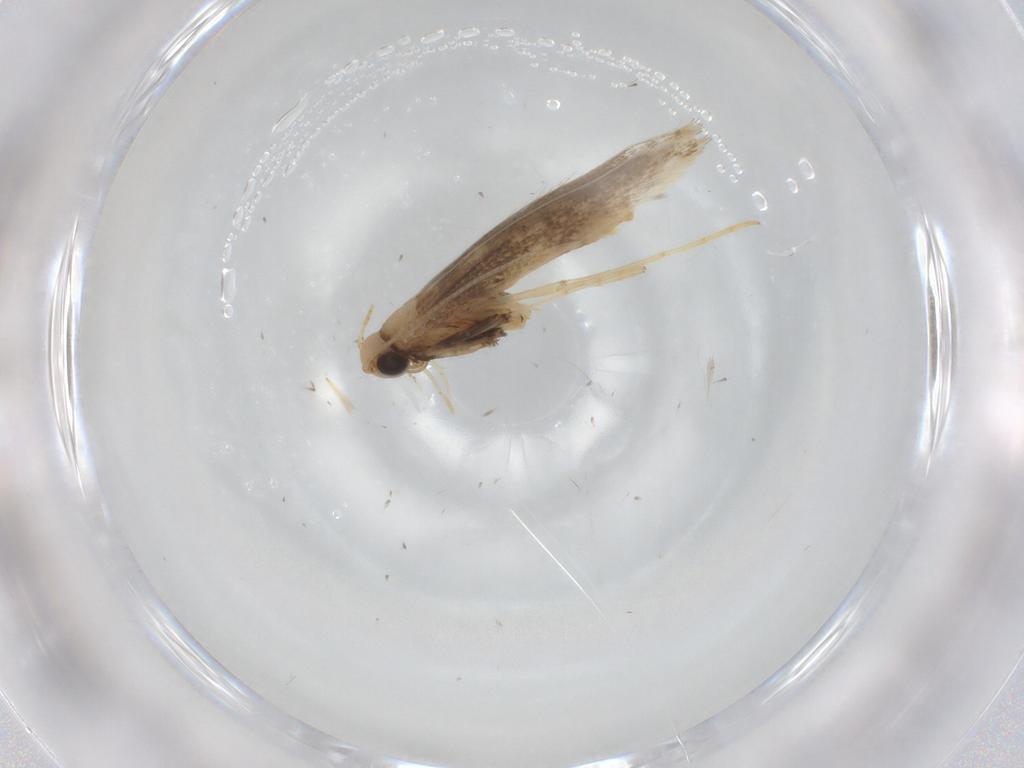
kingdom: Animalia
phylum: Arthropoda
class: Insecta
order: Lepidoptera
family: Gracillariidae
